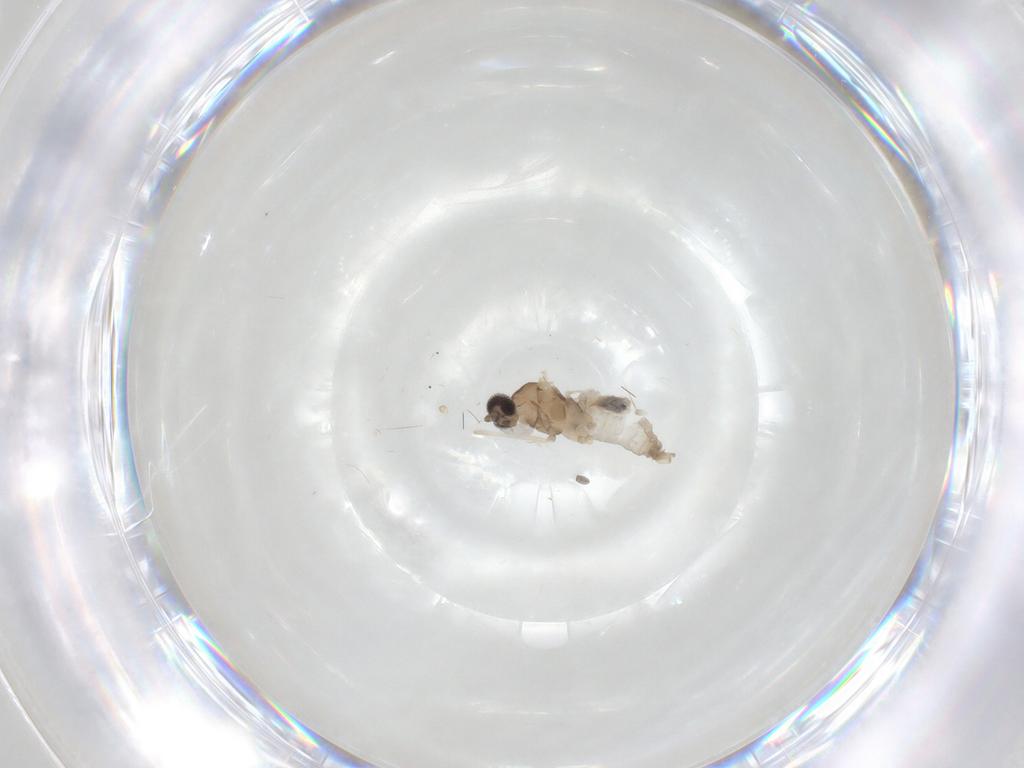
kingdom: Animalia
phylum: Arthropoda
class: Insecta
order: Diptera
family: Cecidomyiidae
